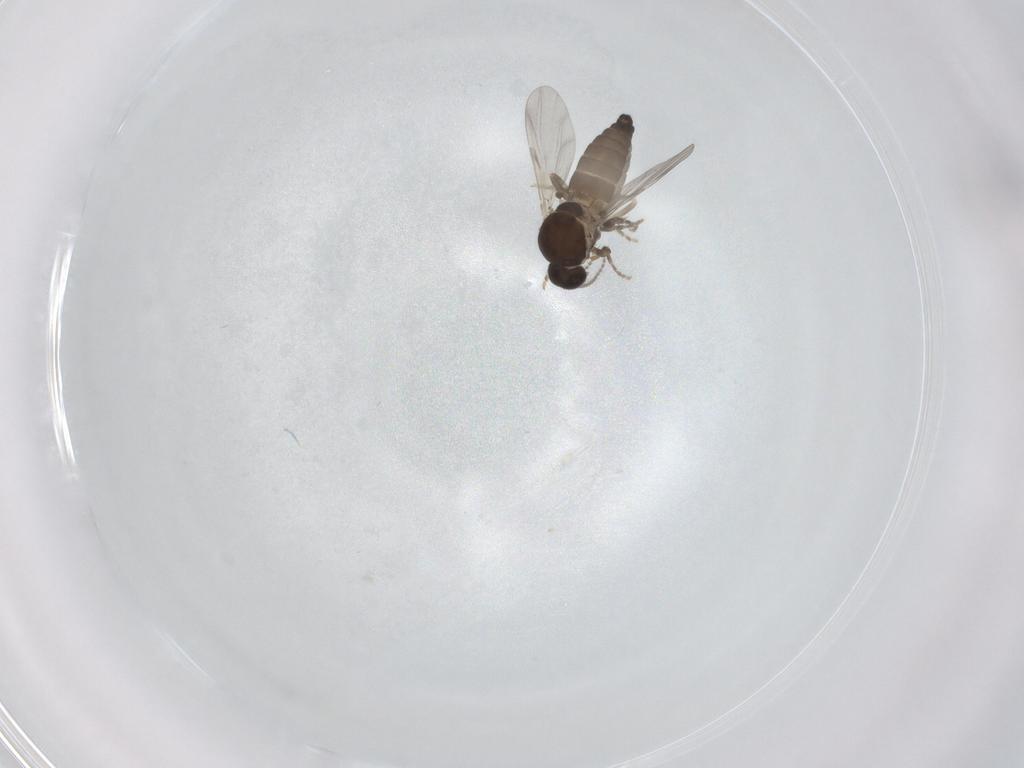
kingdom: Animalia
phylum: Arthropoda
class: Insecta
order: Diptera
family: Ceratopogonidae
